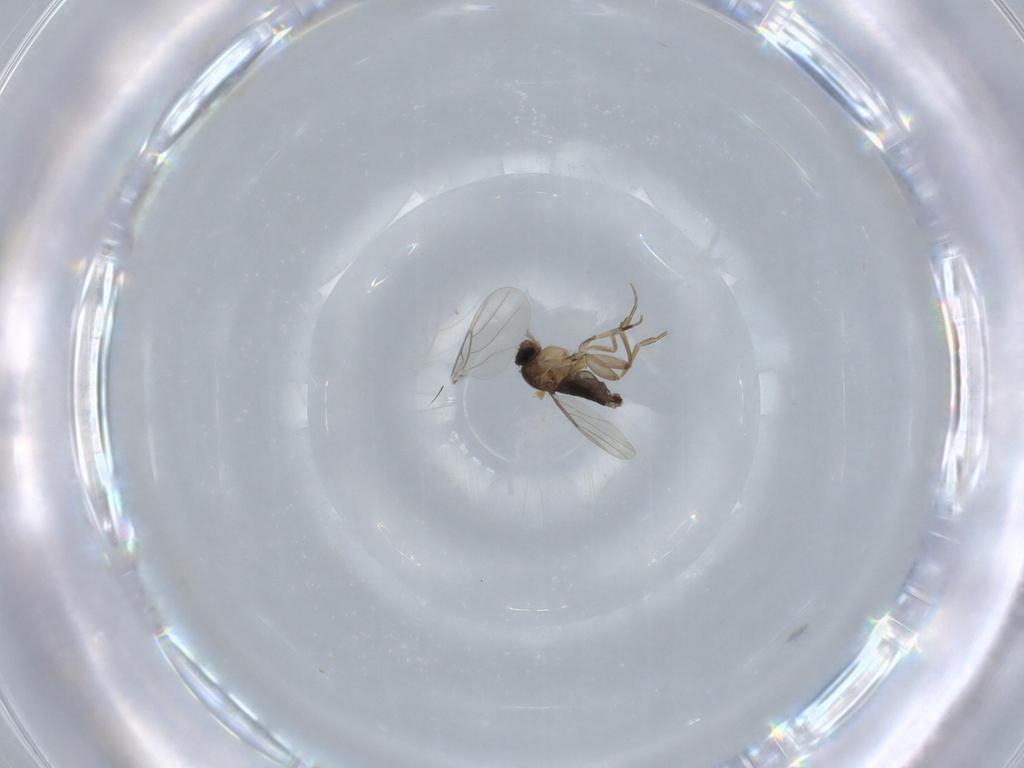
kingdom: Animalia
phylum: Arthropoda
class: Insecta
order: Diptera
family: Phoridae
